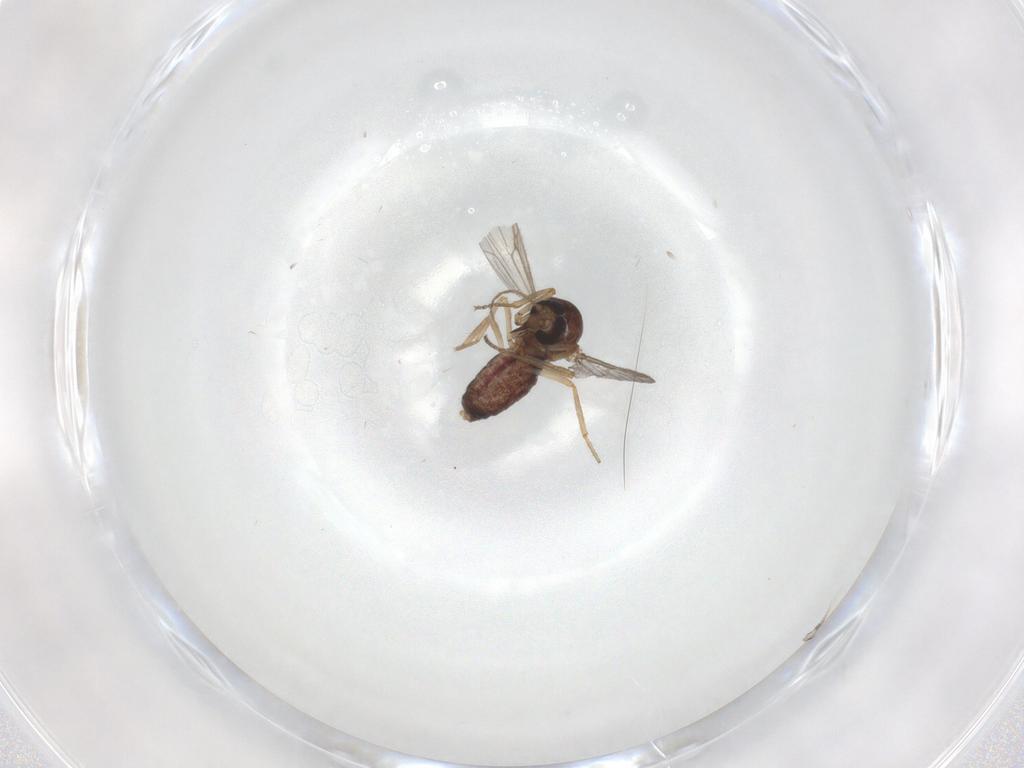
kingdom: Animalia
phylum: Arthropoda
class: Insecta
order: Diptera
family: Ceratopogonidae
